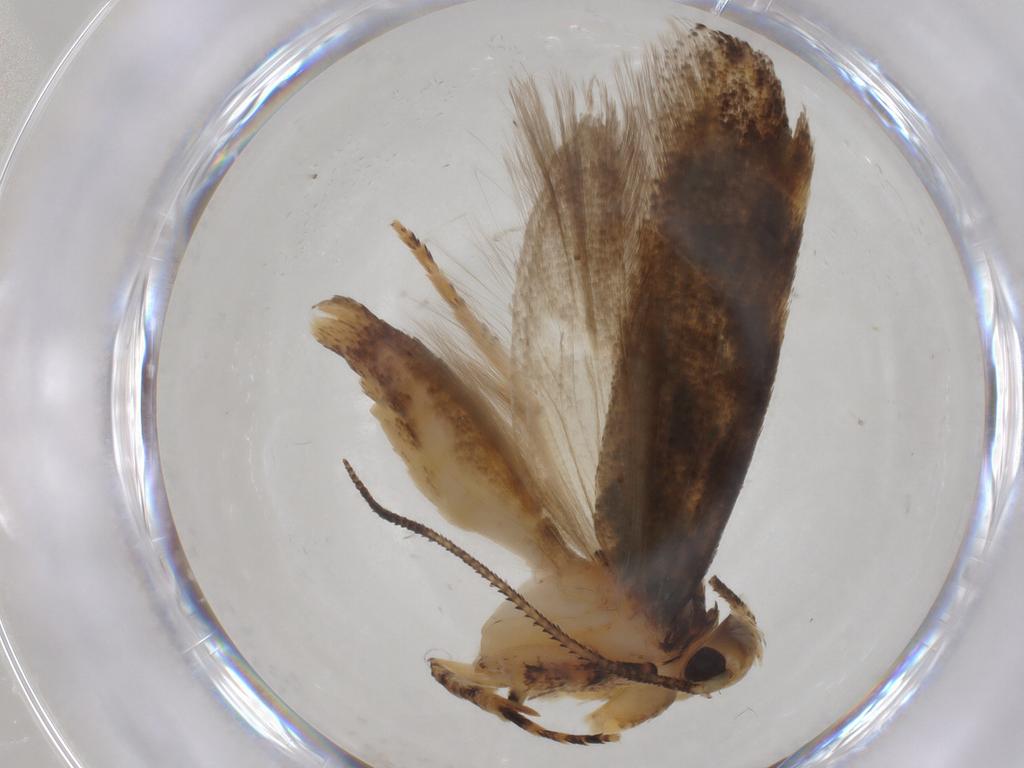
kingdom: Animalia
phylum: Arthropoda
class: Insecta
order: Lepidoptera
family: Gelechiidae
